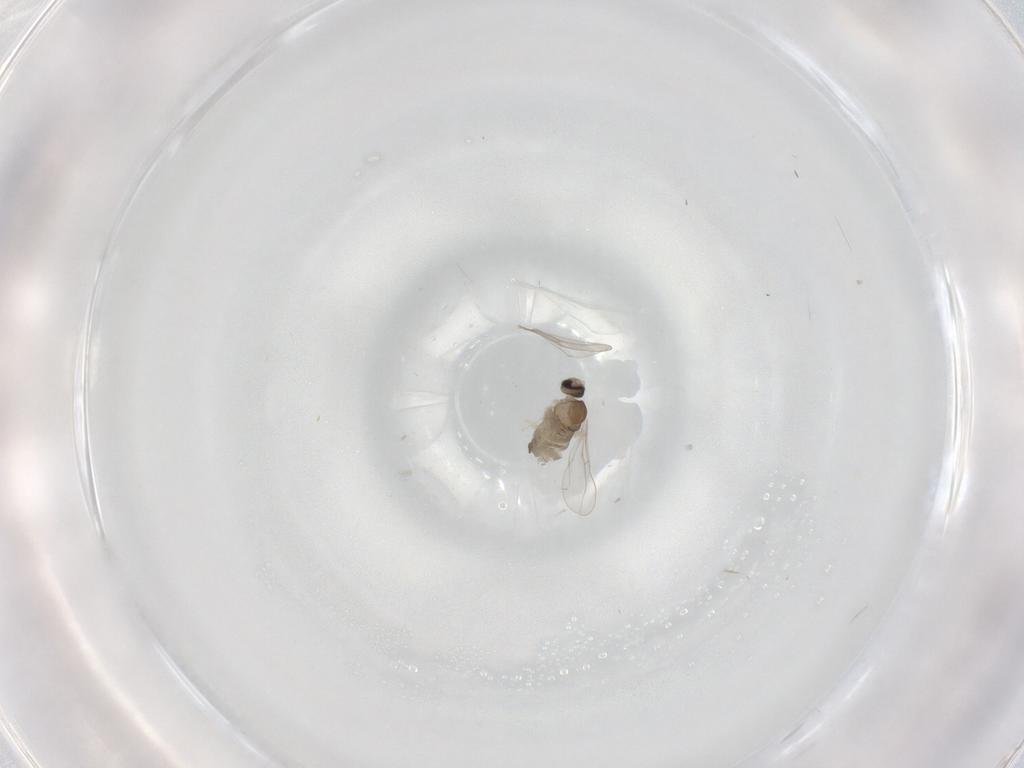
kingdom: Animalia
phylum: Arthropoda
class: Insecta
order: Diptera
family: Cecidomyiidae
